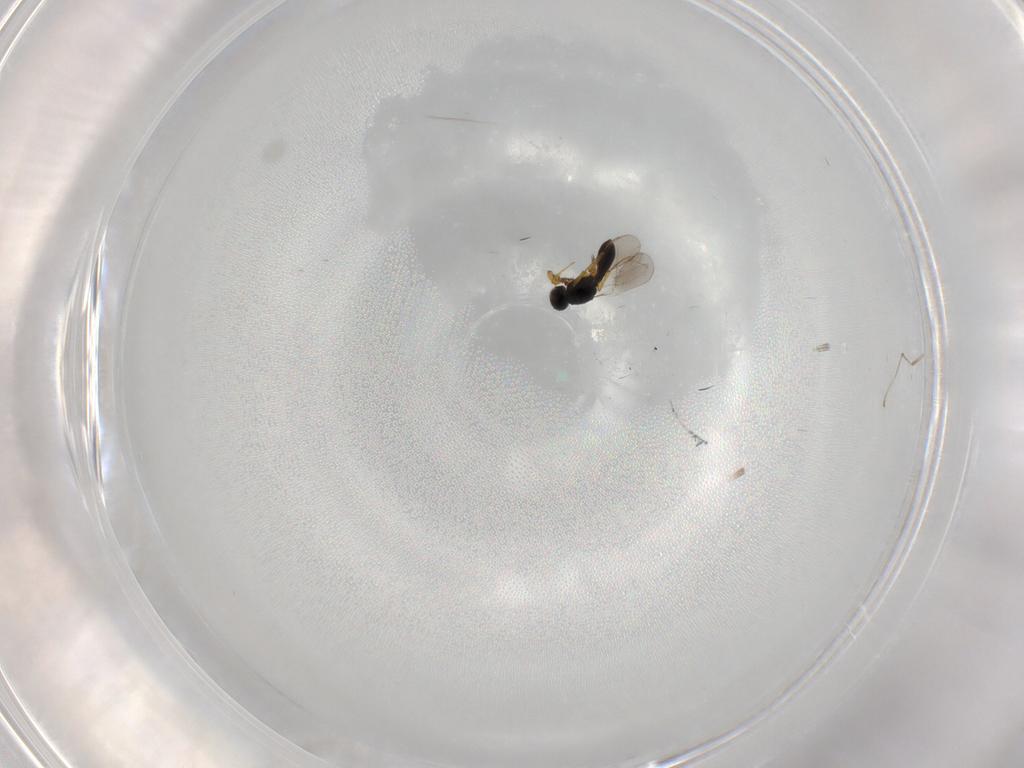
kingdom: Animalia
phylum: Arthropoda
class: Insecta
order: Hymenoptera
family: Platygastridae
